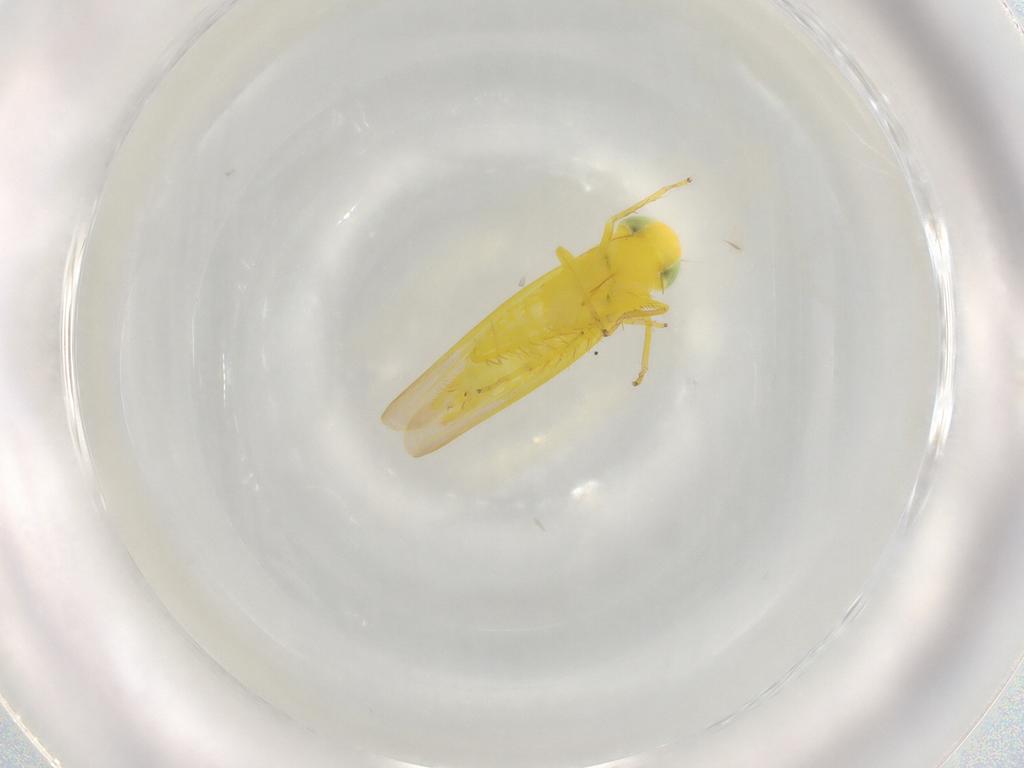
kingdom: Animalia
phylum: Arthropoda
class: Insecta
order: Hemiptera
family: Cicadellidae
